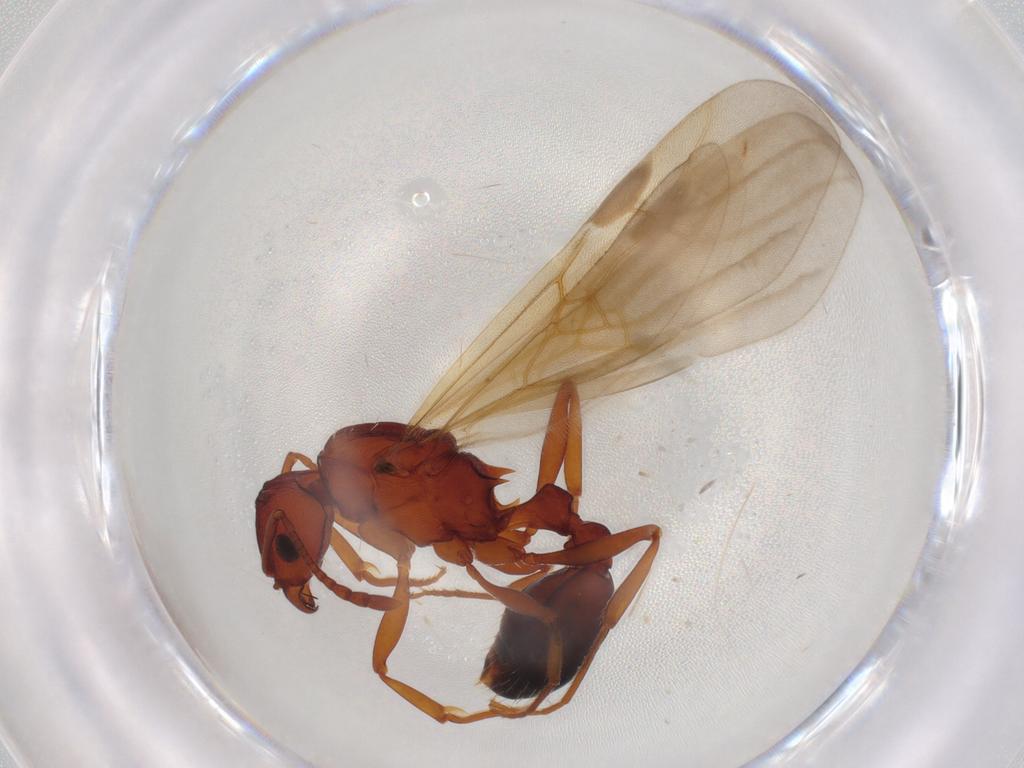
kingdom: Animalia
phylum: Arthropoda
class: Insecta
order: Hymenoptera
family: Formicidae
